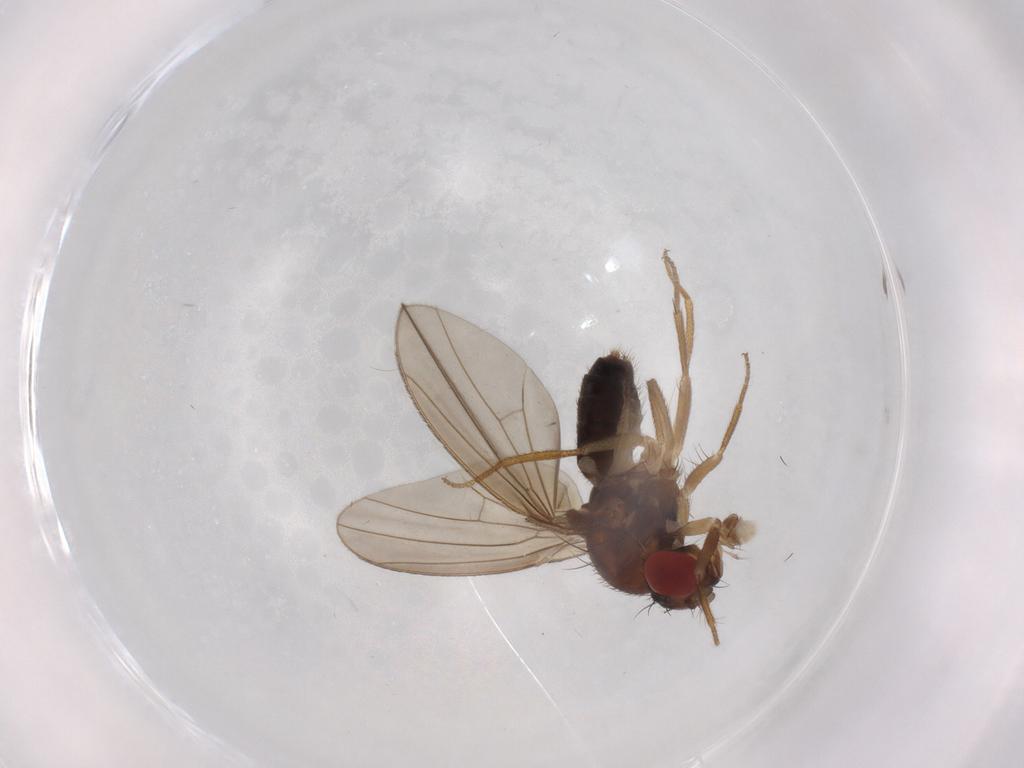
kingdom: Animalia
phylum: Arthropoda
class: Insecta
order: Diptera
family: Drosophilidae
